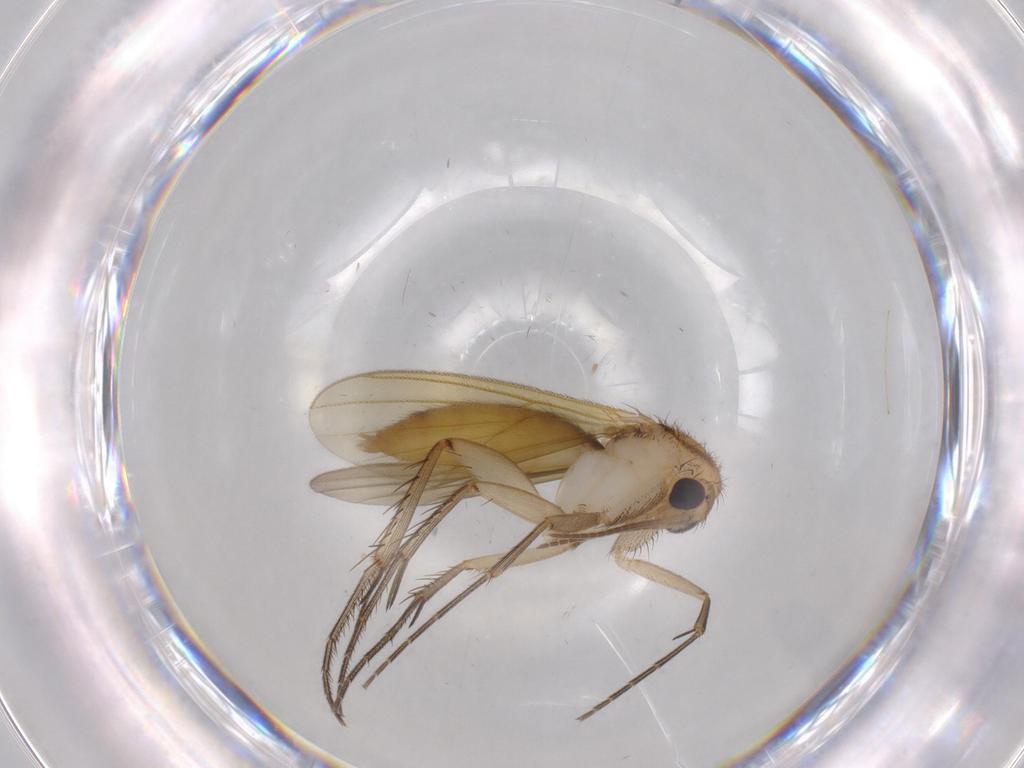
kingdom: Animalia
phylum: Arthropoda
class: Insecta
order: Diptera
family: Mycetophilidae
